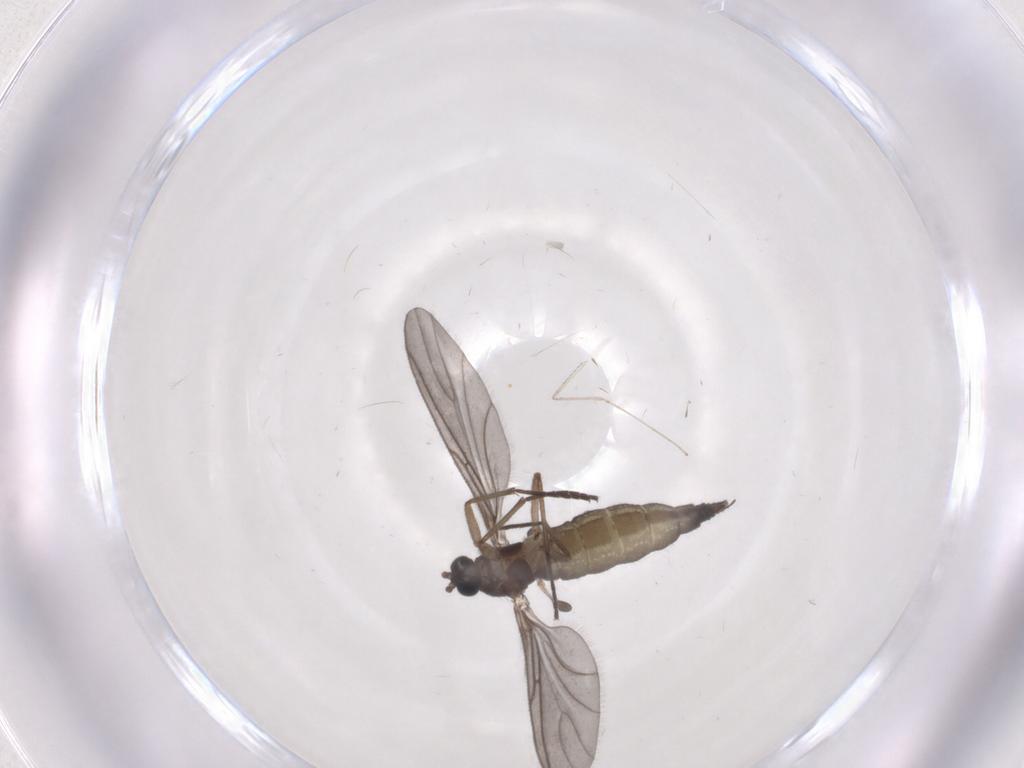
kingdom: Animalia
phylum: Arthropoda
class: Insecta
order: Diptera
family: Sciaridae
